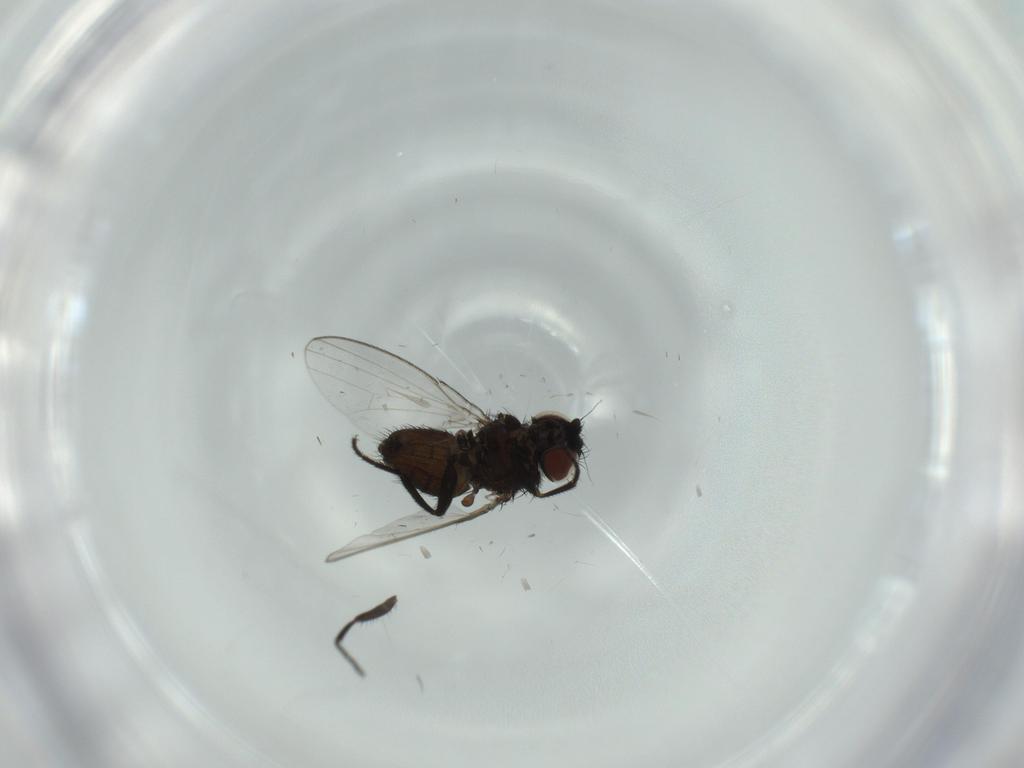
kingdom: Animalia
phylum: Arthropoda
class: Insecta
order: Diptera
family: Milichiidae
